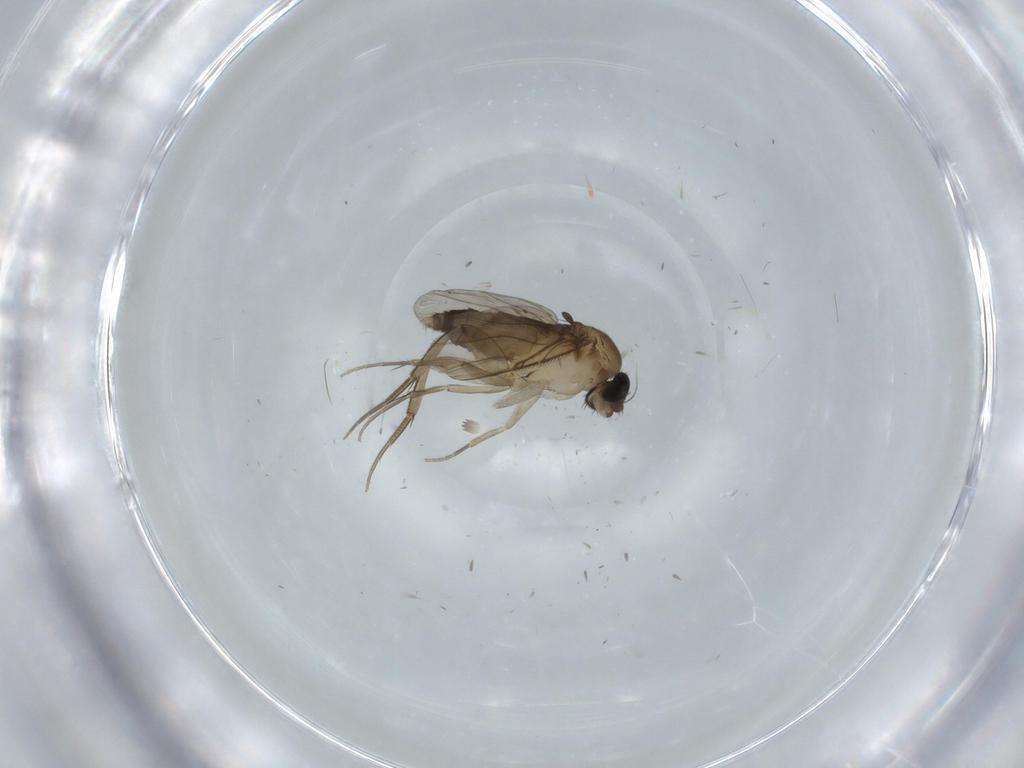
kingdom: Animalia
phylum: Arthropoda
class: Insecta
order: Diptera
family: Phoridae
